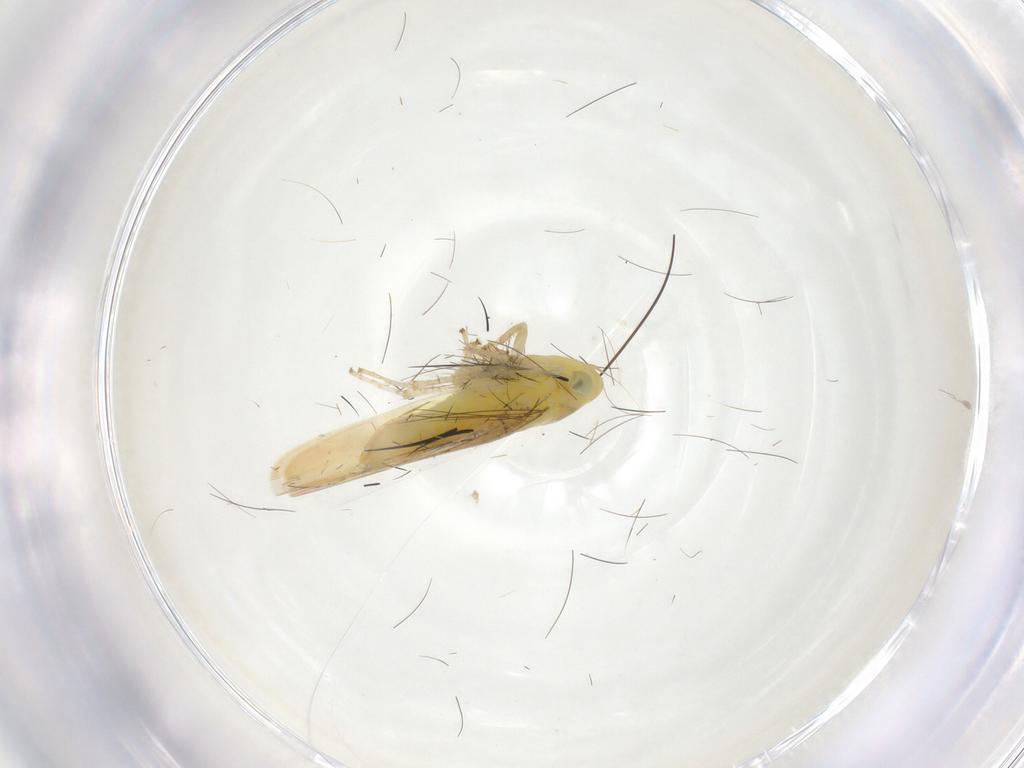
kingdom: Animalia
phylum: Arthropoda
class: Insecta
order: Hemiptera
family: Cicadellidae
